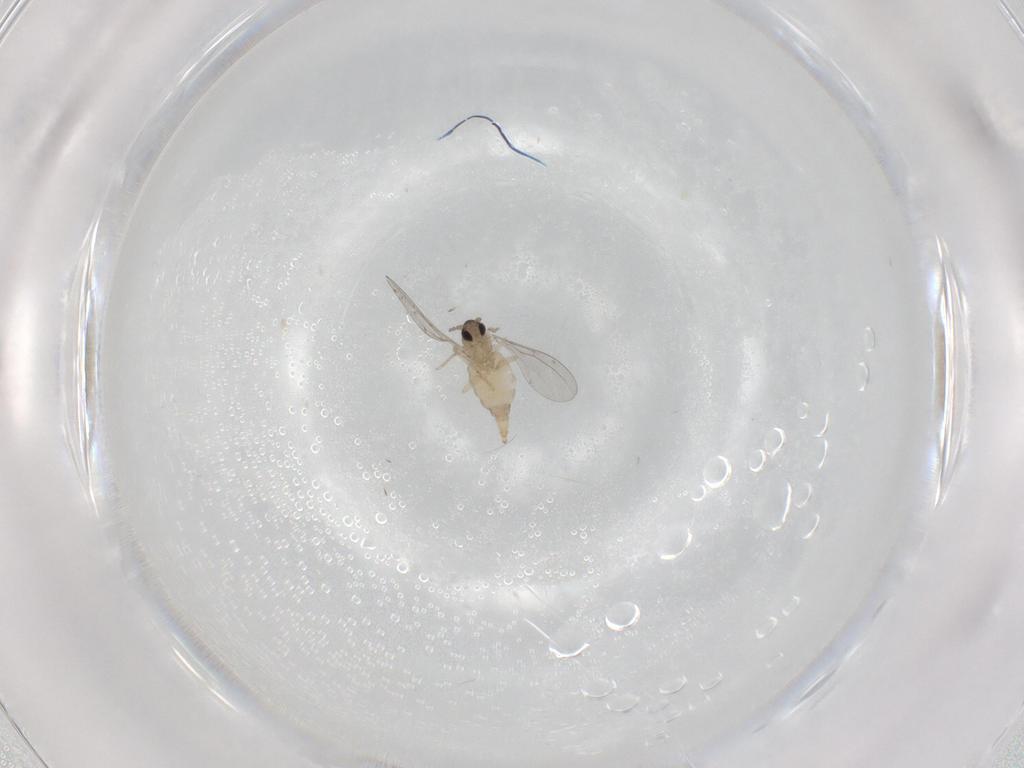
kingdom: Animalia
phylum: Arthropoda
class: Insecta
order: Diptera
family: Cecidomyiidae
